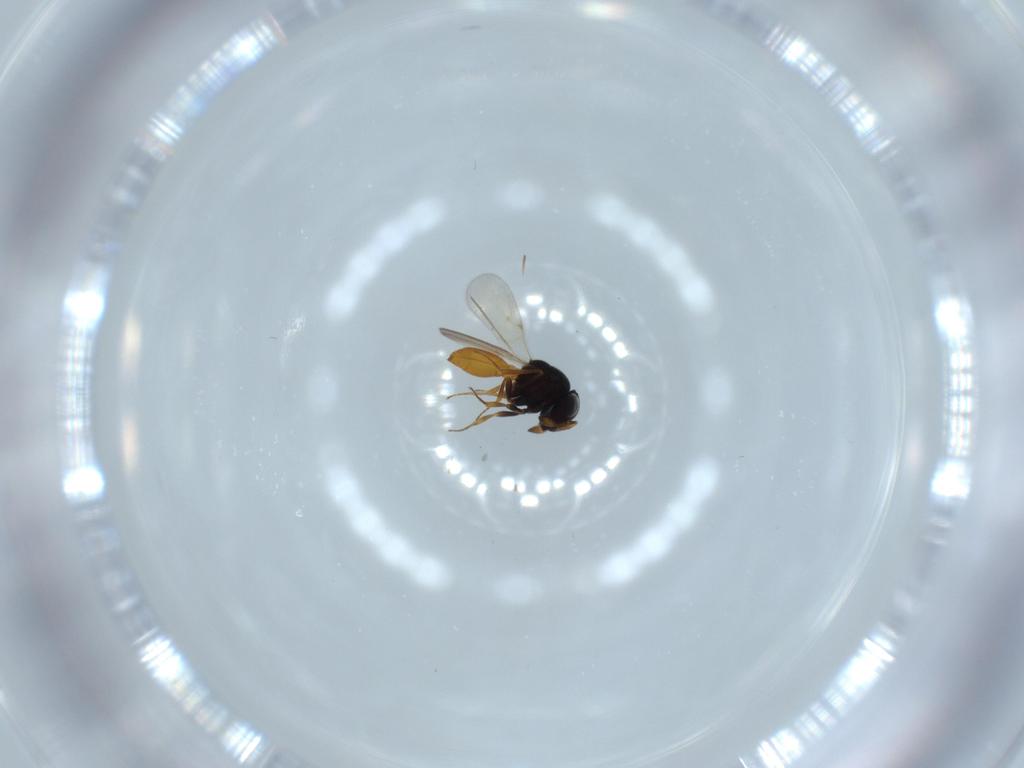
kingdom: Animalia
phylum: Arthropoda
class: Insecta
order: Hymenoptera
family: Scelionidae
